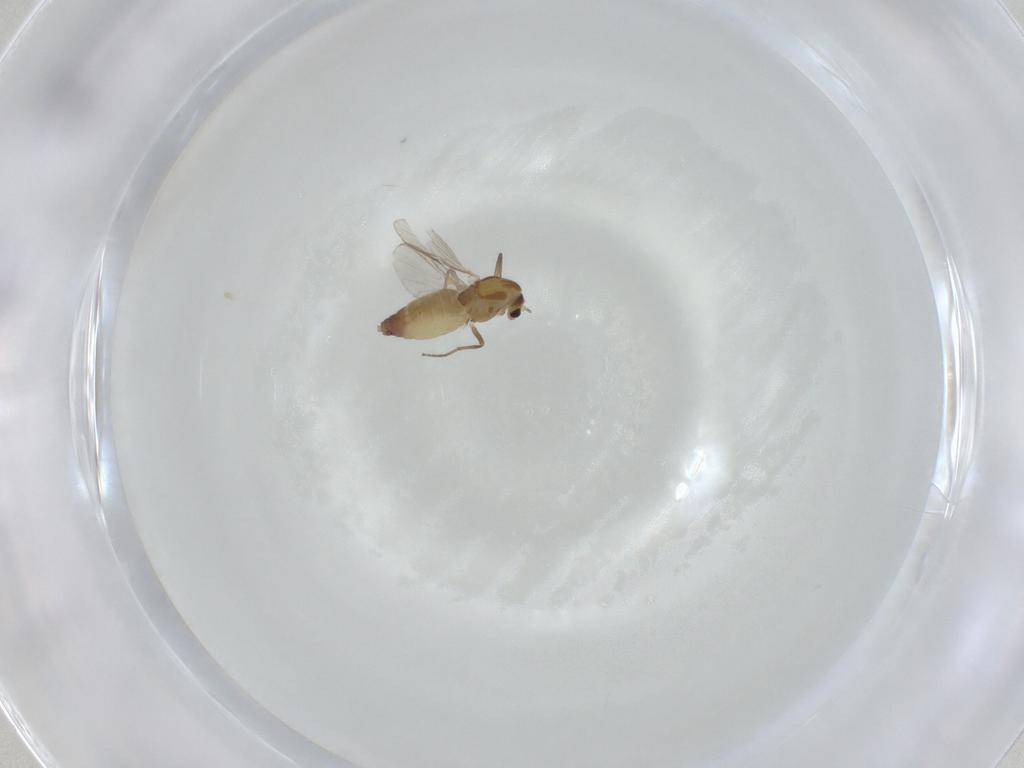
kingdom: Animalia
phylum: Arthropoda
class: Insecta
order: Diptera
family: Chironomidae
